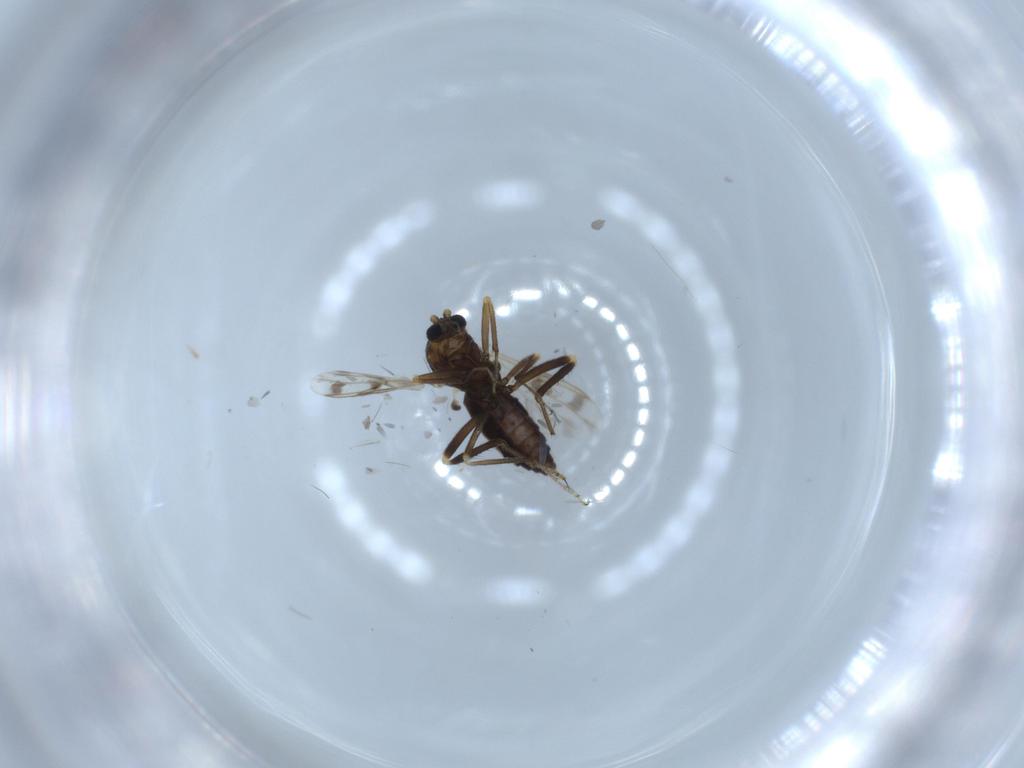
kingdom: Animalia
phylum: Arthropoda
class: Insecta
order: Diptera
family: Ceratopogonidae
